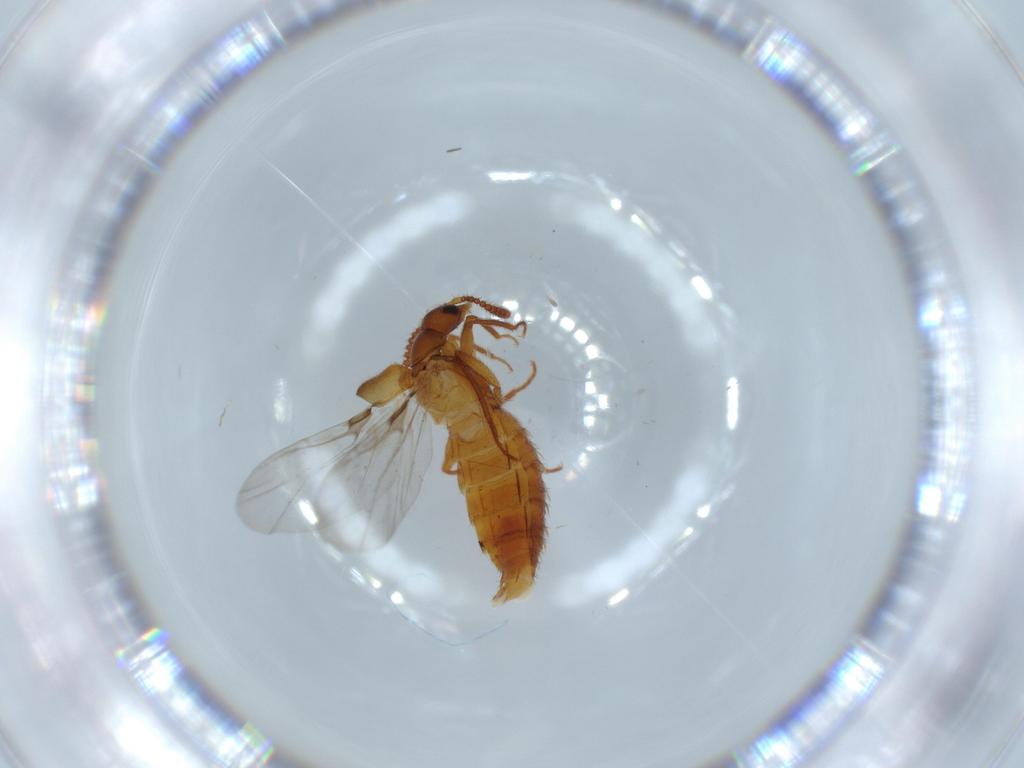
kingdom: Animalia
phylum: Arthropoda
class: Insecta
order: Coleoptera
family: Staphylinidae
